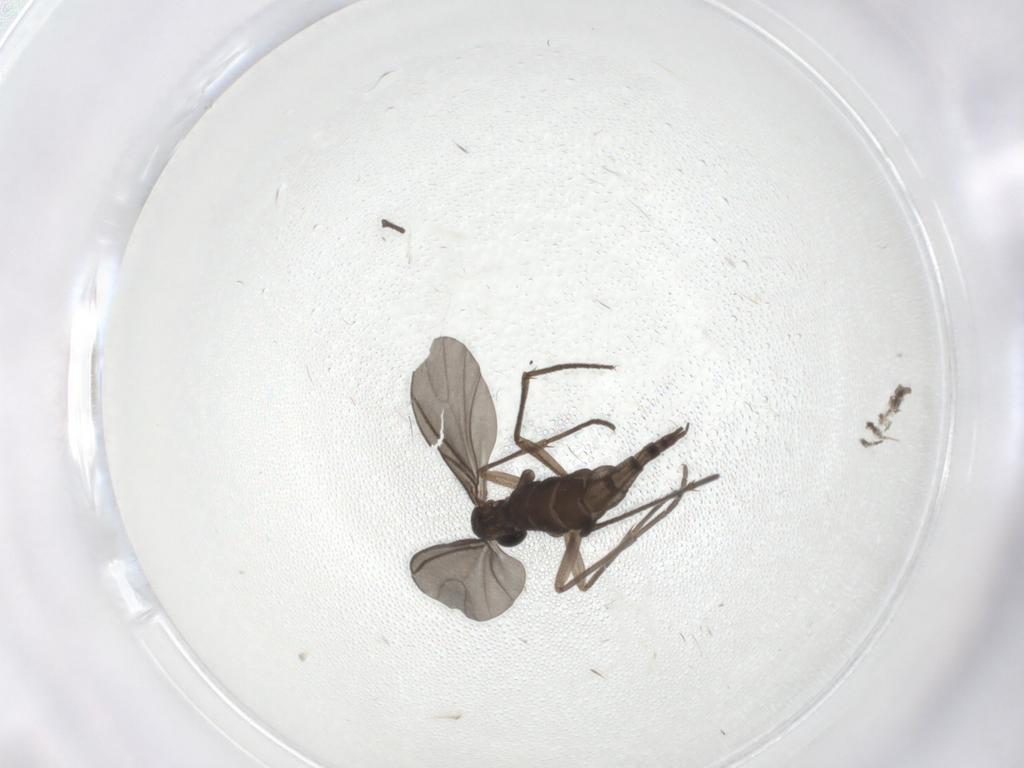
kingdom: Animalia
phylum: Arthropoda
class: Insecta
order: Diptera
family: Sciaridae
